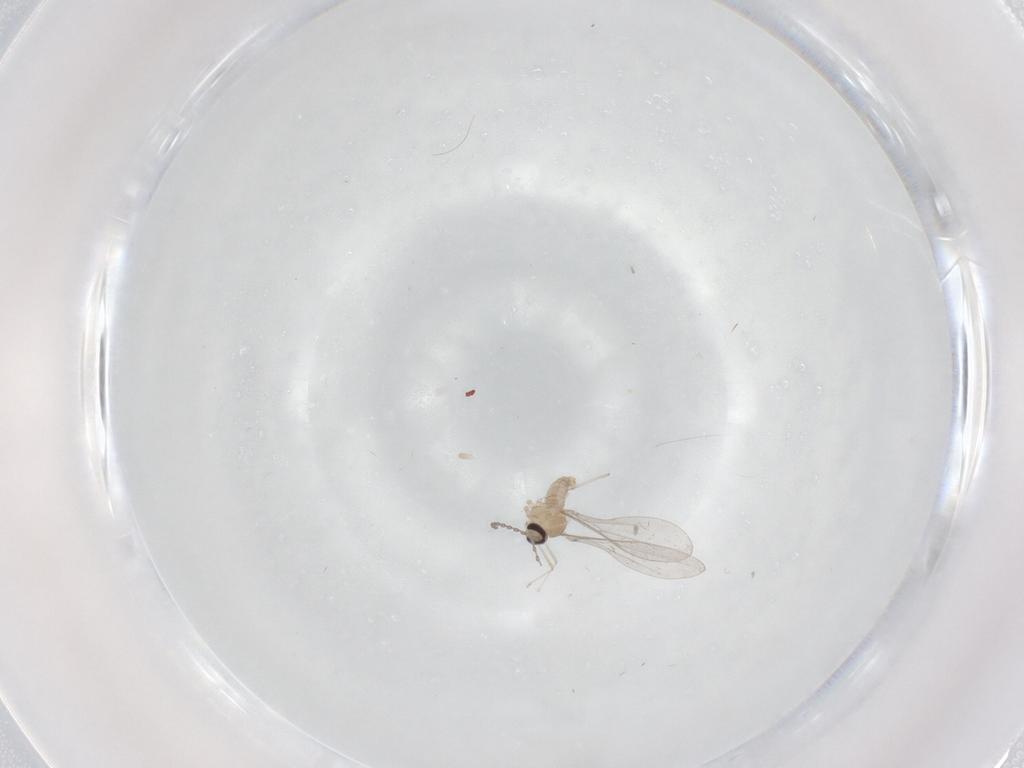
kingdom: Animalia
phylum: Arthropoda
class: Insecta
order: Diptera
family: Cecidomyiidae
